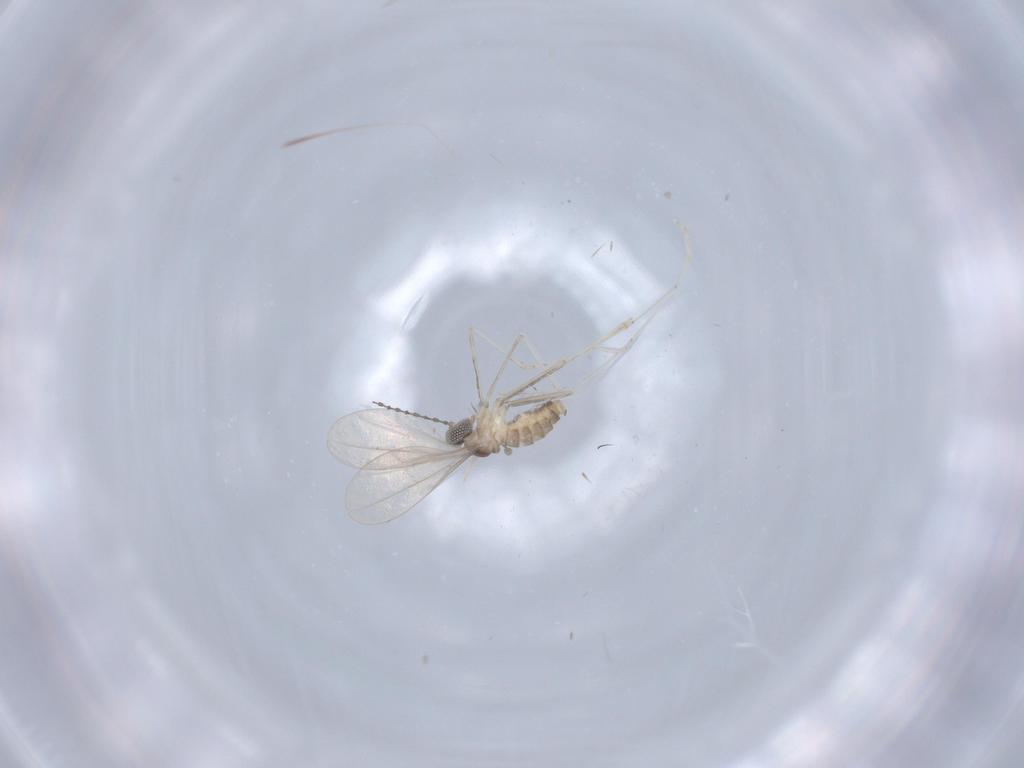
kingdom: Animalia
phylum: Arthropoda
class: Insecta
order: Diptera
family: Cecidomyiidae
